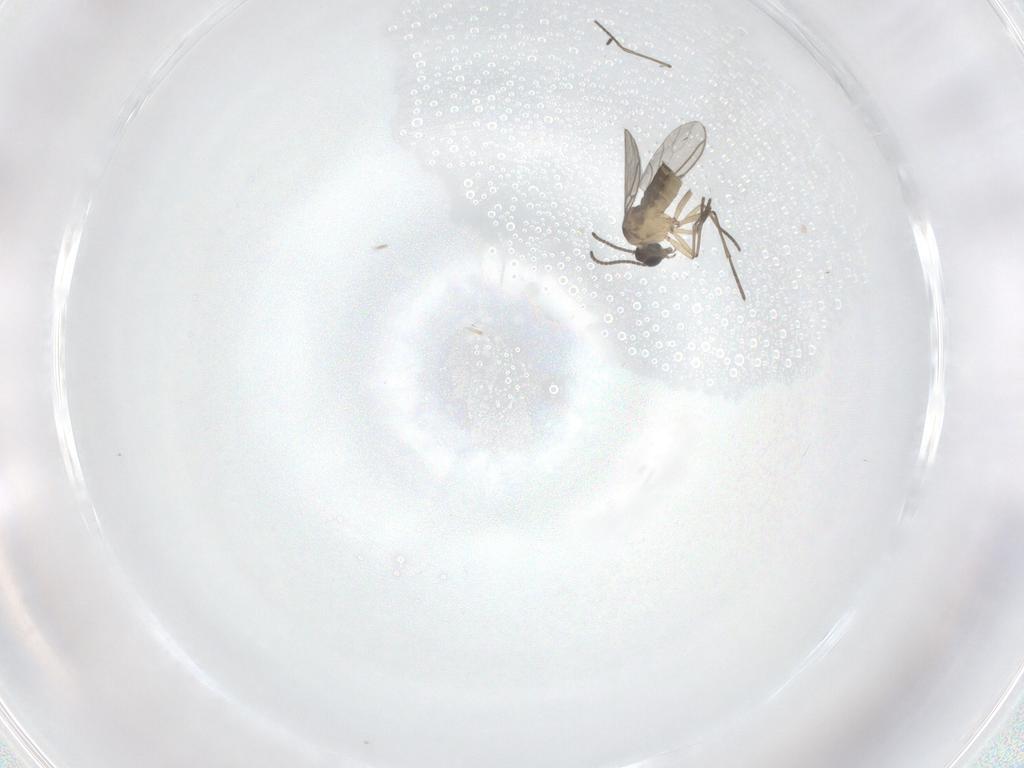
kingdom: Animalia
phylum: Arthropoda
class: Insecta
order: Diptera
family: Sciaridae
